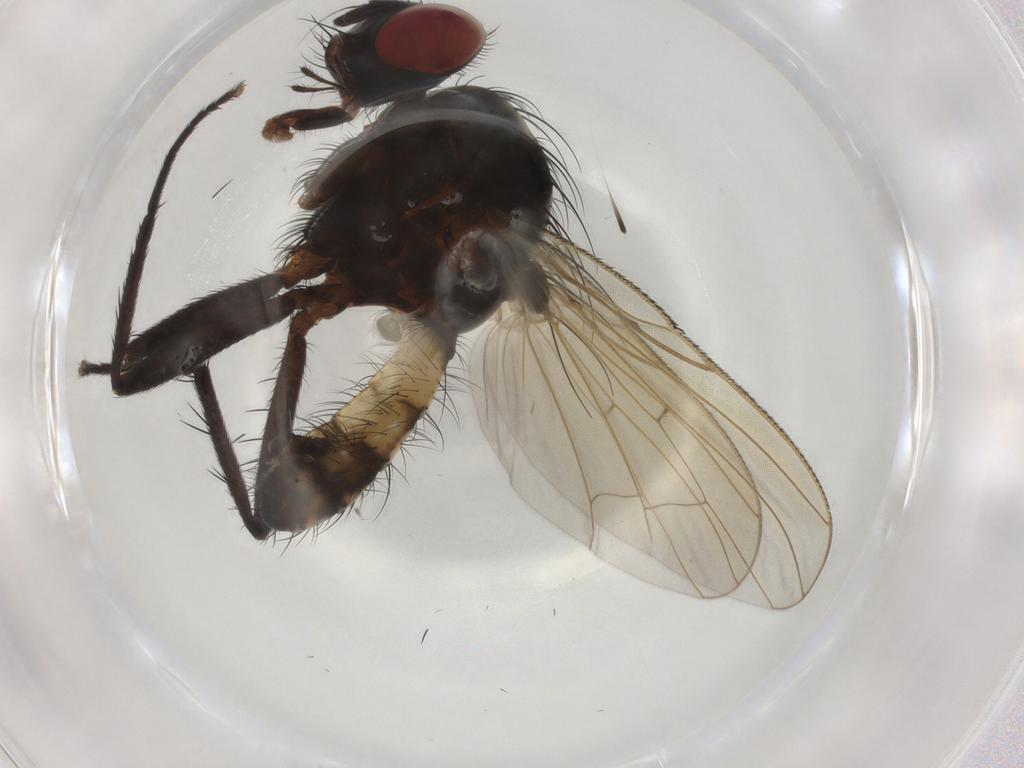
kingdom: Animalia
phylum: Arthropoda
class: Insecta
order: Diptera
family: Anthomyiidae
